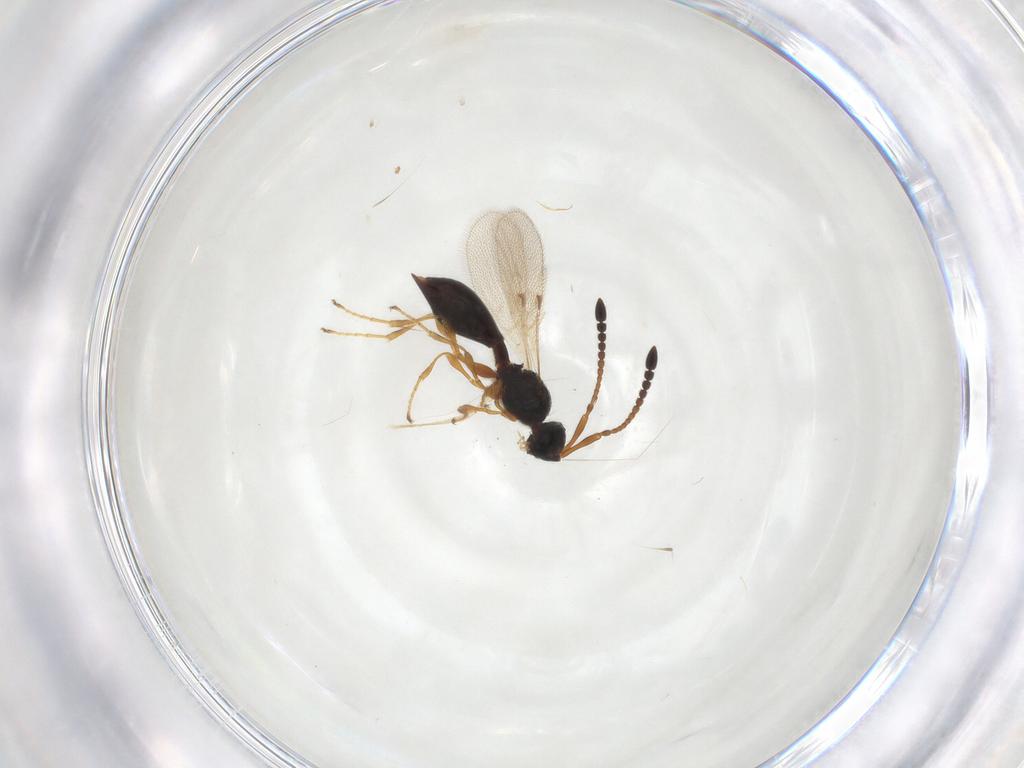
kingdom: Animalia
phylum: Arthropoda
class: Insecta
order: Hymenoptera
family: Diapriidae
